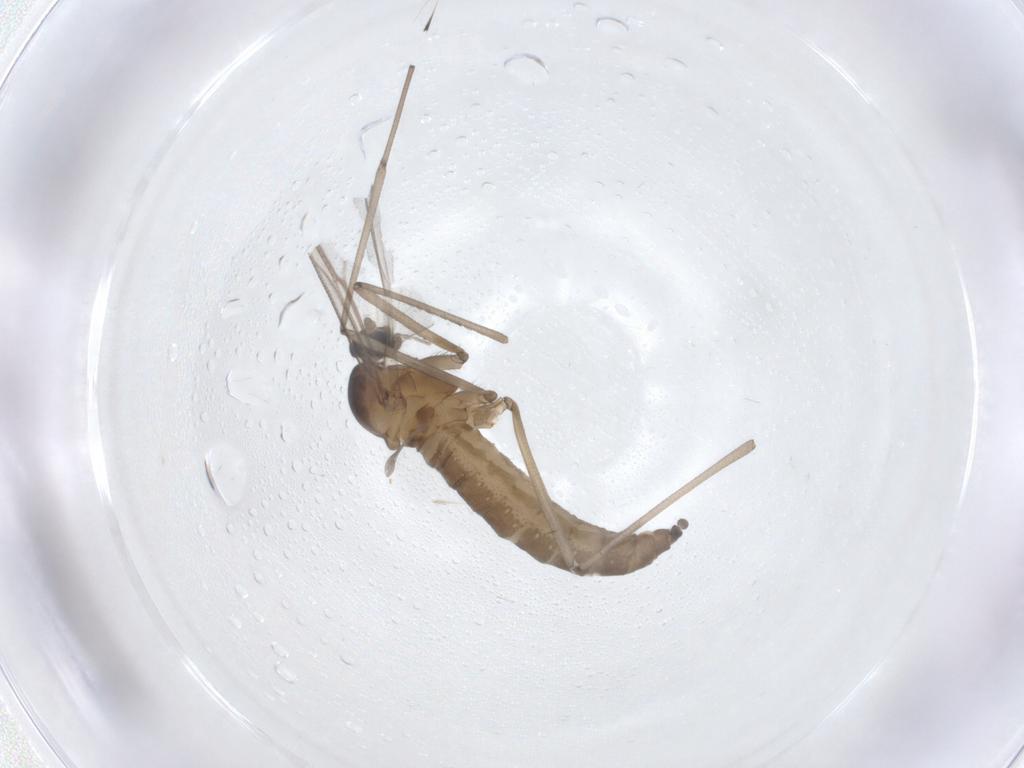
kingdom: Animalia
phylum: Arthropoda
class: Insecta
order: Diptera
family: Cecidomyiidae
